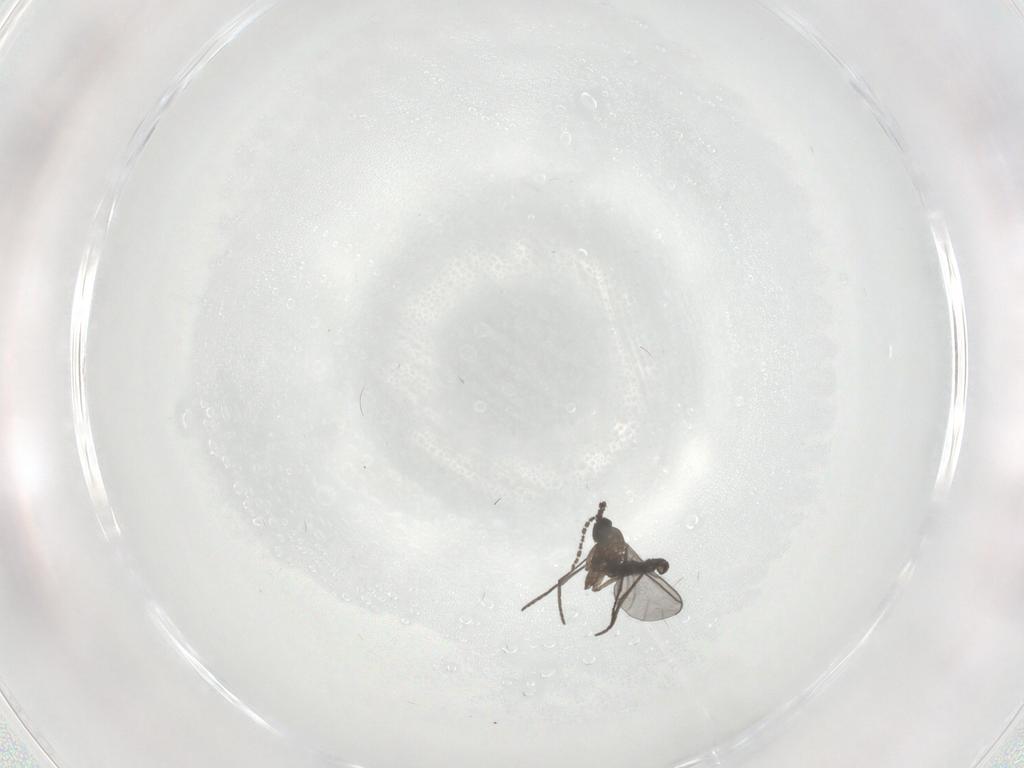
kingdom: Animalia
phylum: Arthropoda
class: Insecta
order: Diptera
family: Sciaridae
